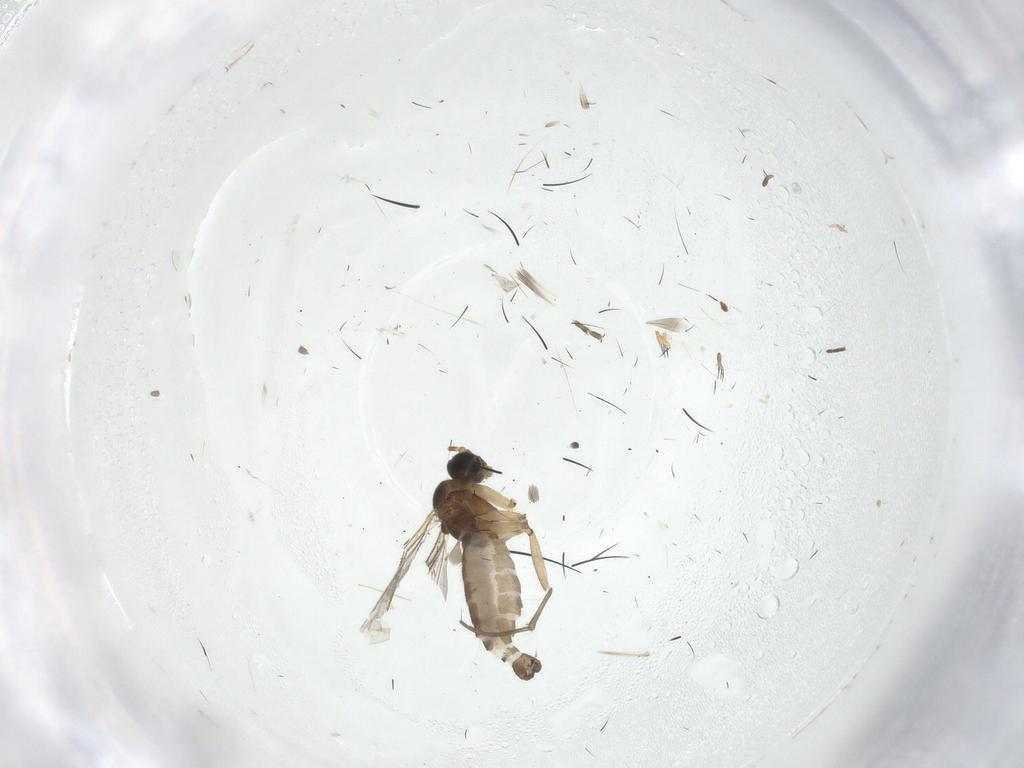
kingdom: Animalia
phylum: Arthropoda
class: Insecta
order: Diptera
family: Sciaridae
